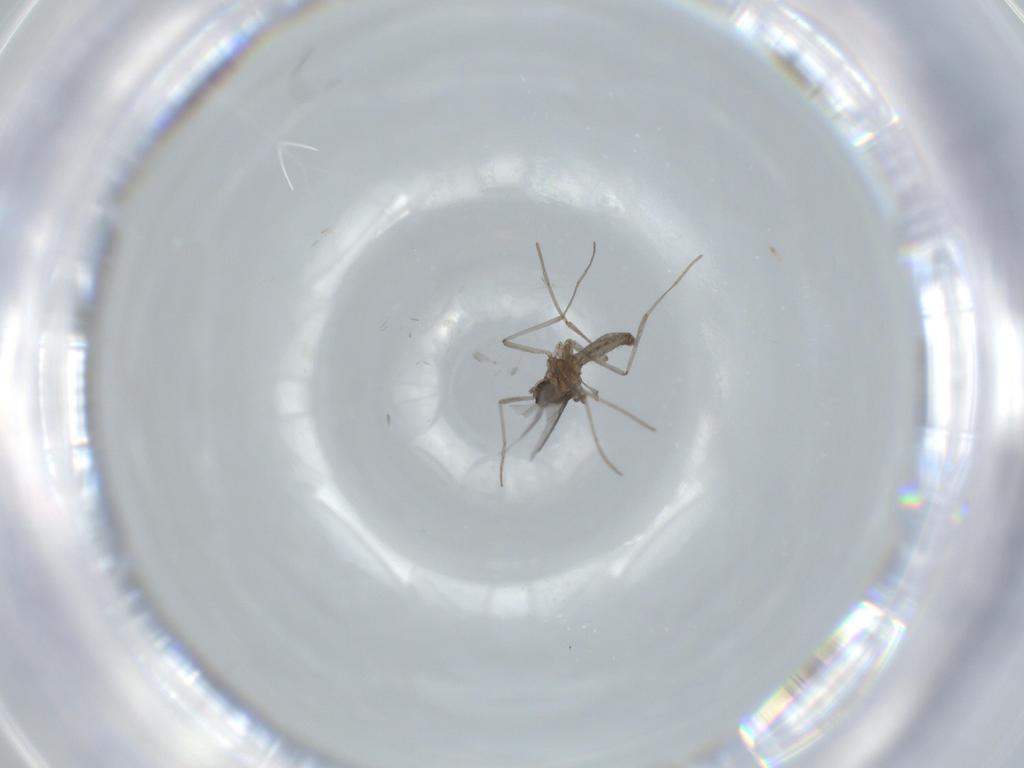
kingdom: Animalia
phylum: Arthropoda
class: Insecta
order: Diptera
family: Cecidomyiidae
